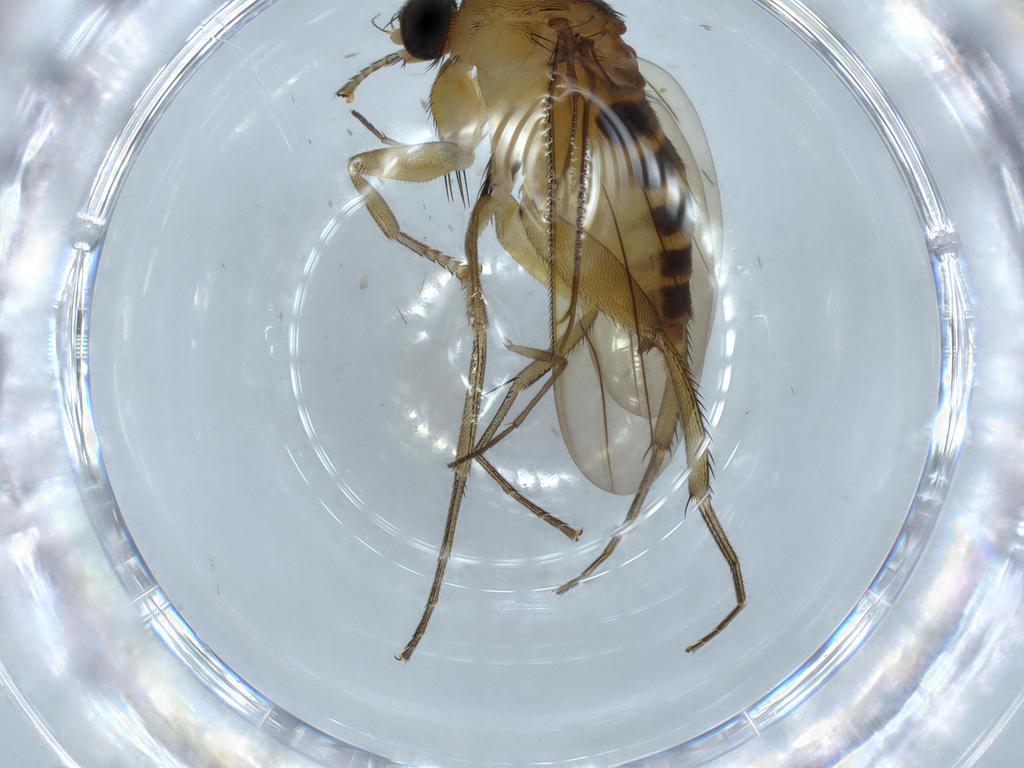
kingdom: Animalia
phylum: Arthropoda
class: Insecta
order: Diptera
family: Phoridae
